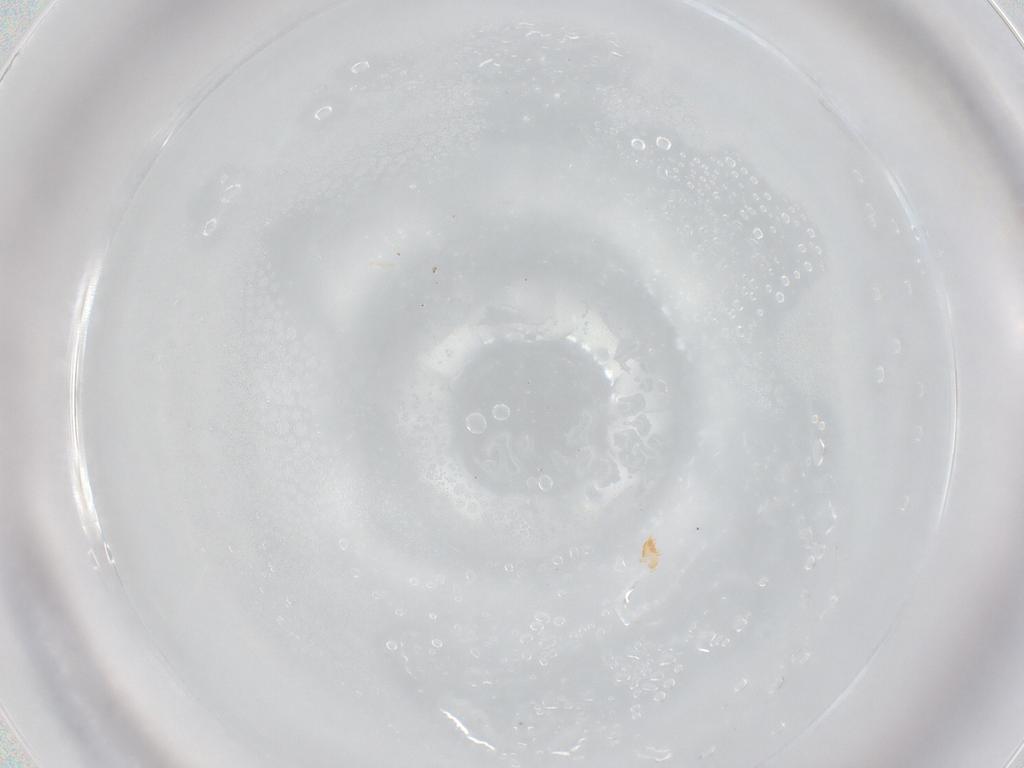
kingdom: Animalia
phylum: Arthropoda
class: Arachnida
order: Sarcoptiformes
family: Brachychthoniidae
